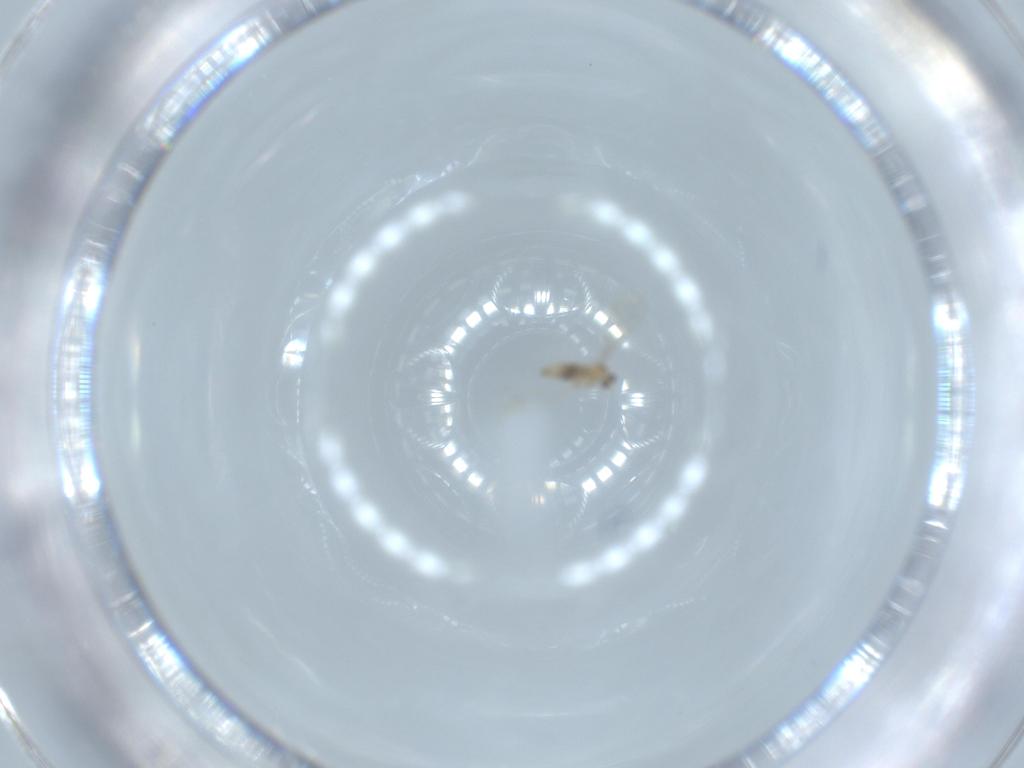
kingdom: Animalia
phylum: Arthropoda
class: Insecta
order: Diptera
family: Cecidomyiidae
